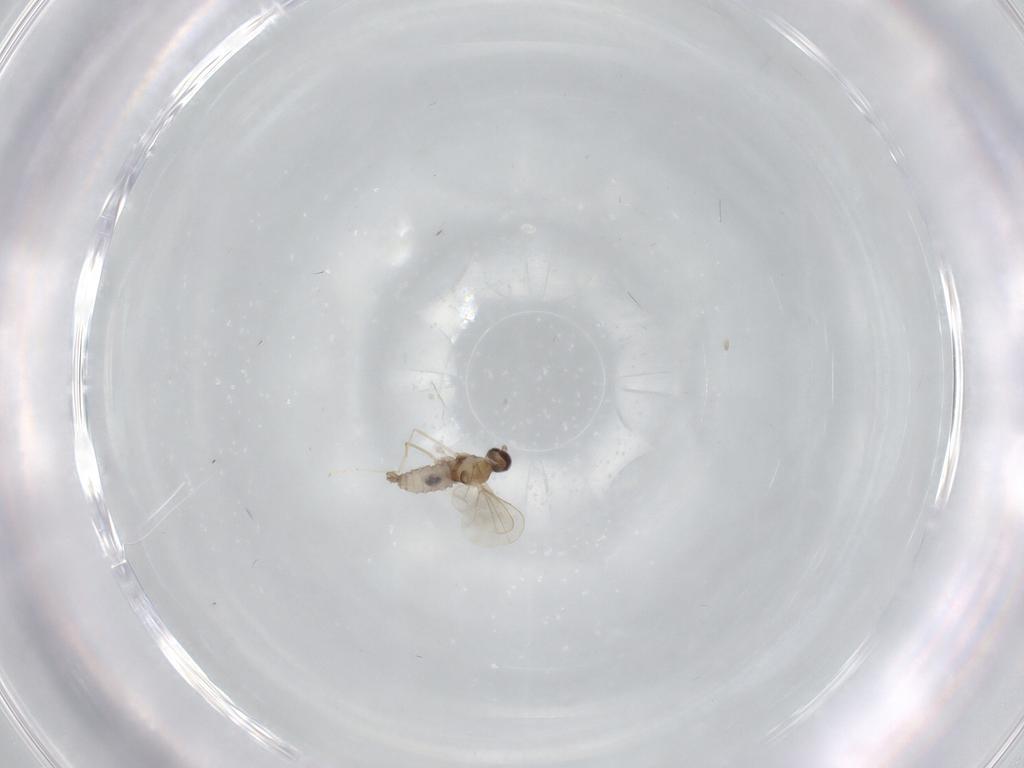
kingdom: Animalia
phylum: Arthropoda
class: Insecta
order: Diptera
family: Cecidomyiidae
